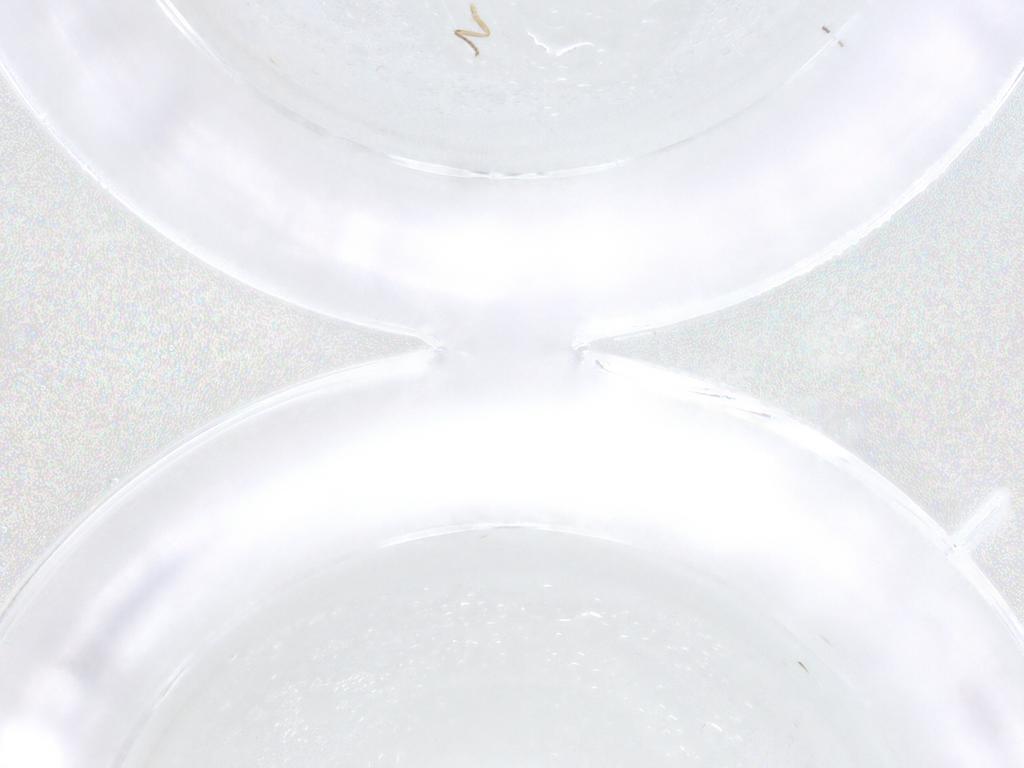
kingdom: Animalia
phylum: Arthropoda
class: Insecta
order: Diptera
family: Ceratopogonidae
